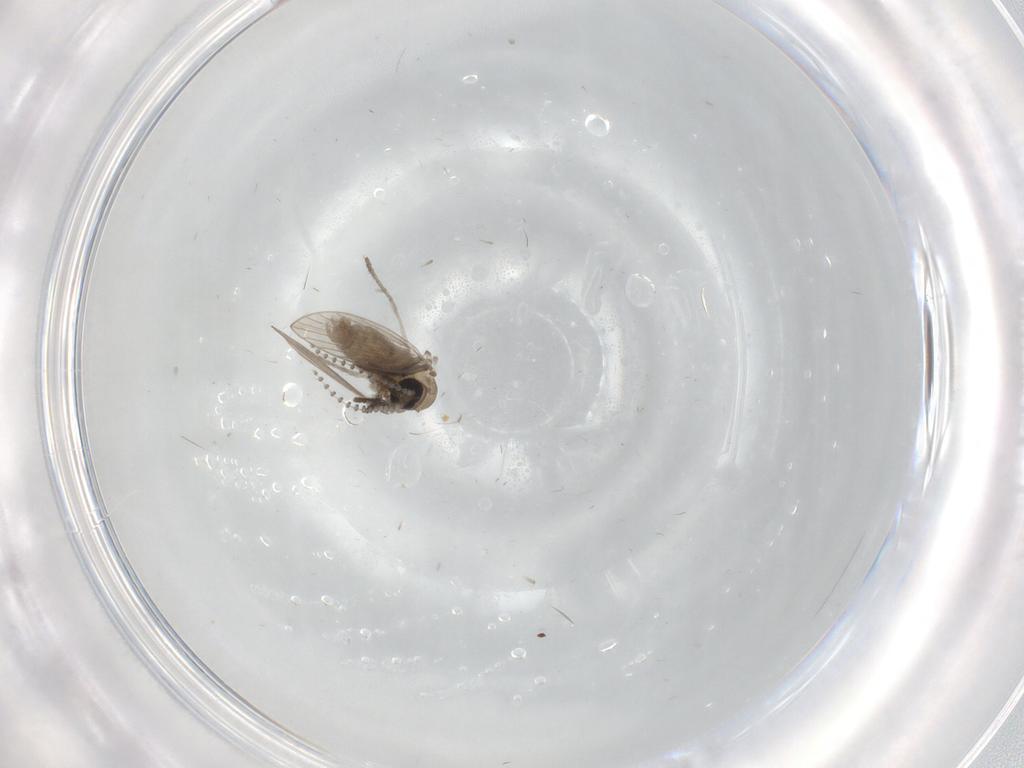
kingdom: Animalia
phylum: Arthropoda
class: Insecta
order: Diptera
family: Psychodidae
